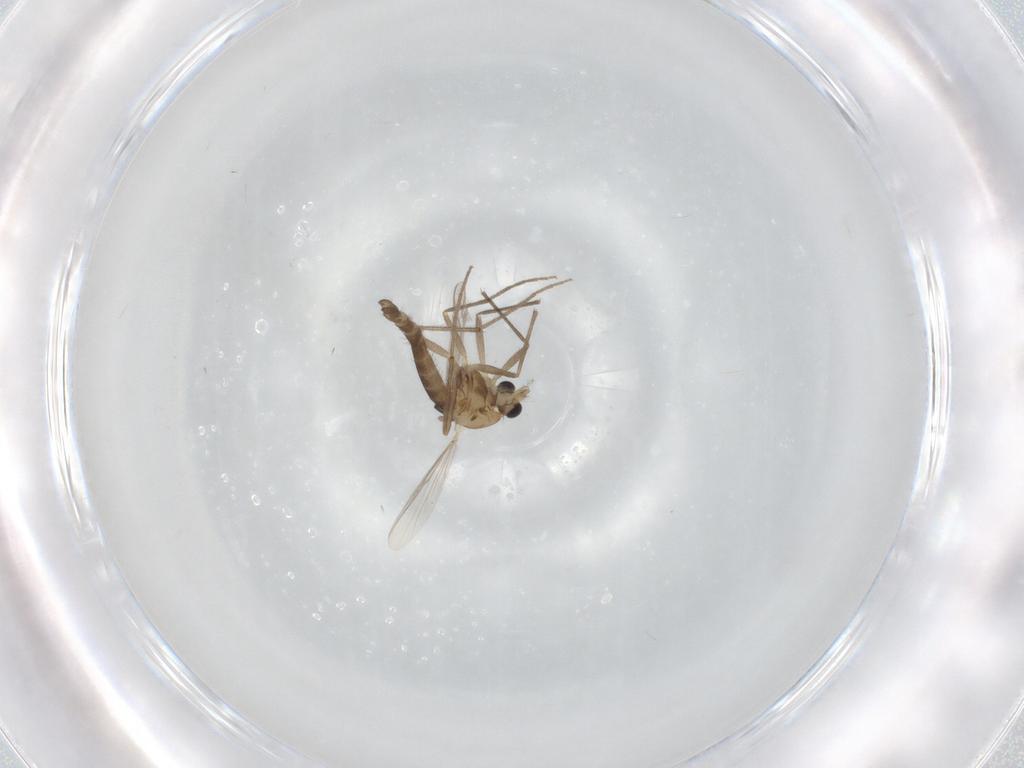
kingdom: Animalia
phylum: Arthropoda
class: Insecta
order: Diptera
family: Chironomidae
